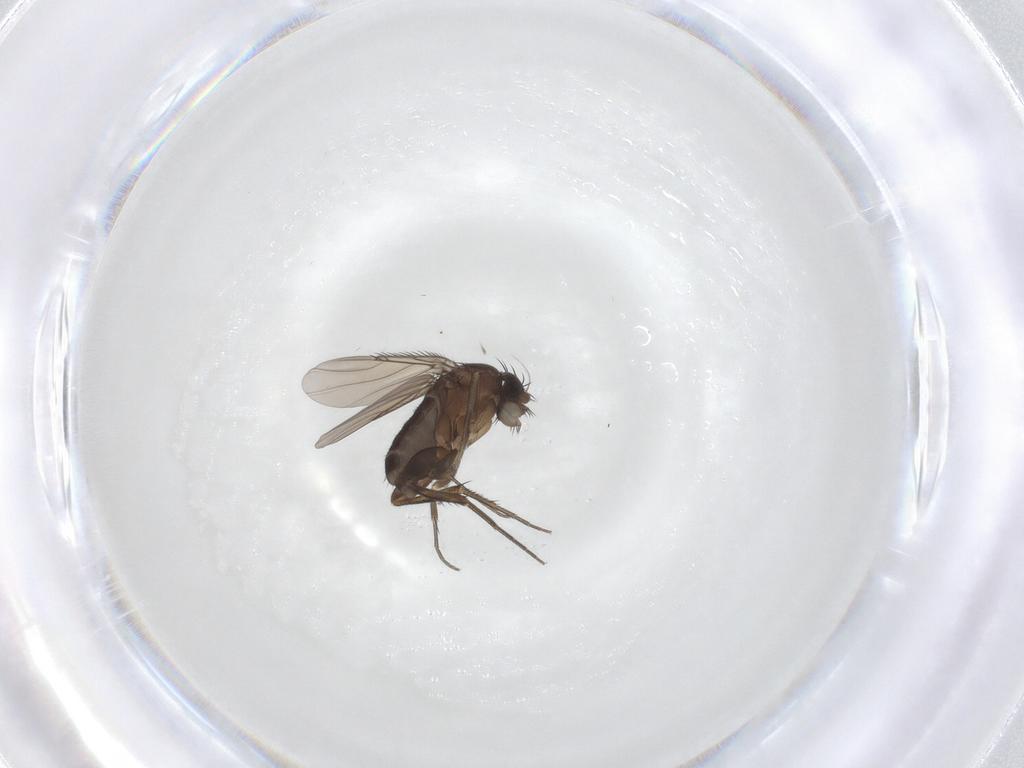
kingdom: Animalia
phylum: Arthropoda
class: Insecta
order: Diptera
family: Phoridae
